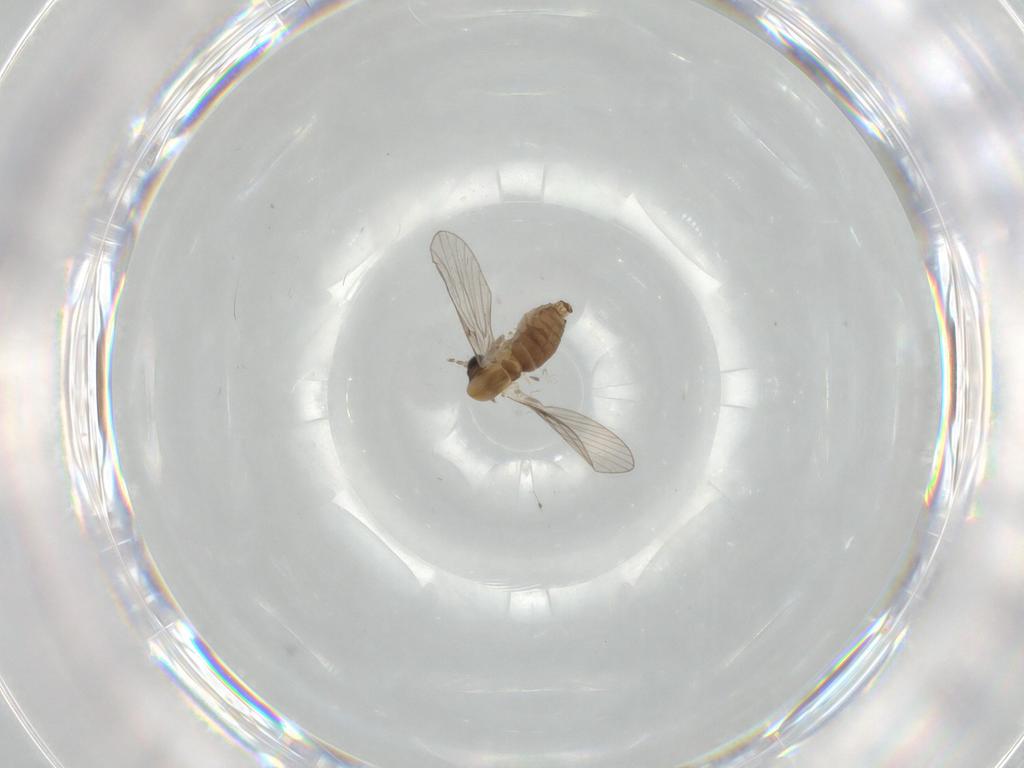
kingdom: Animalia
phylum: Arthropoda
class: Insecta
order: Diptera
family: Psychodidae
